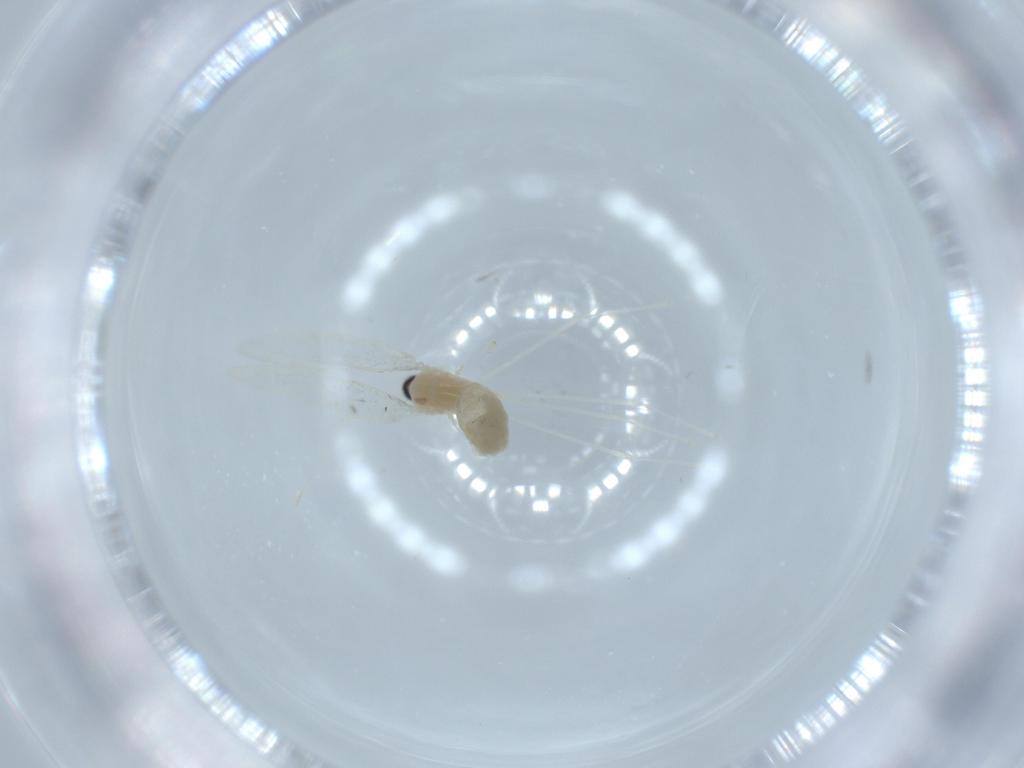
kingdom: Animalia
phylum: Arthropoda
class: Insecta
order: Diptera
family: Cecidomyiidae
